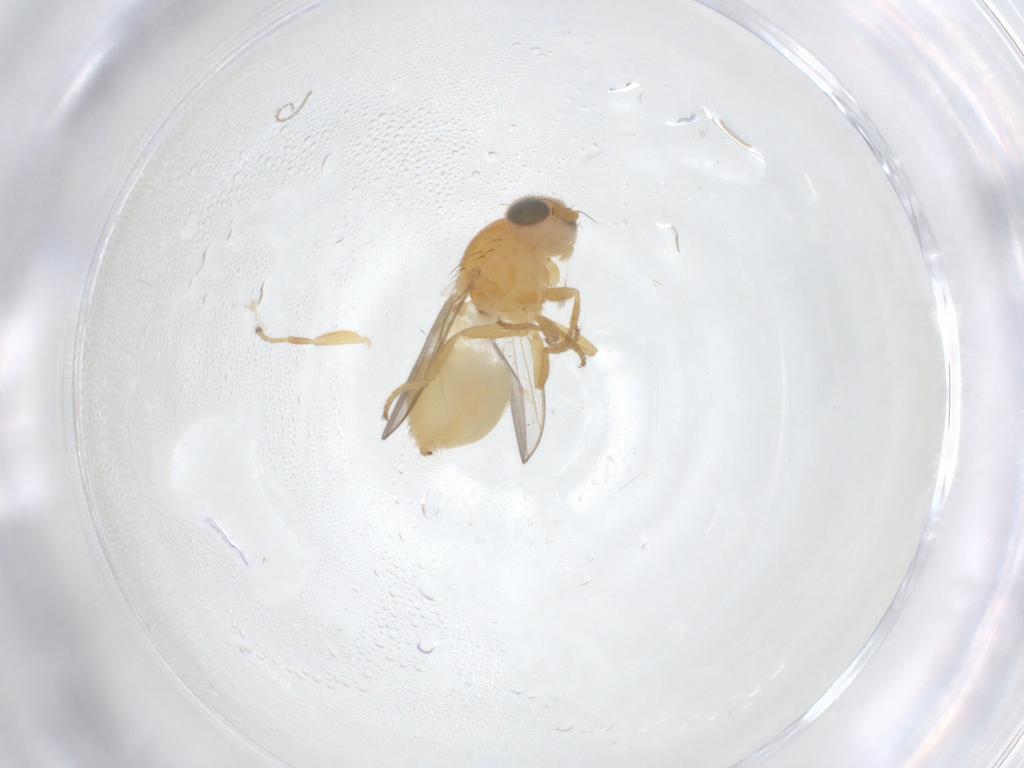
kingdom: Animalia
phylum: Arthropoda
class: Insecta
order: Diptera
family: Chloropidae
